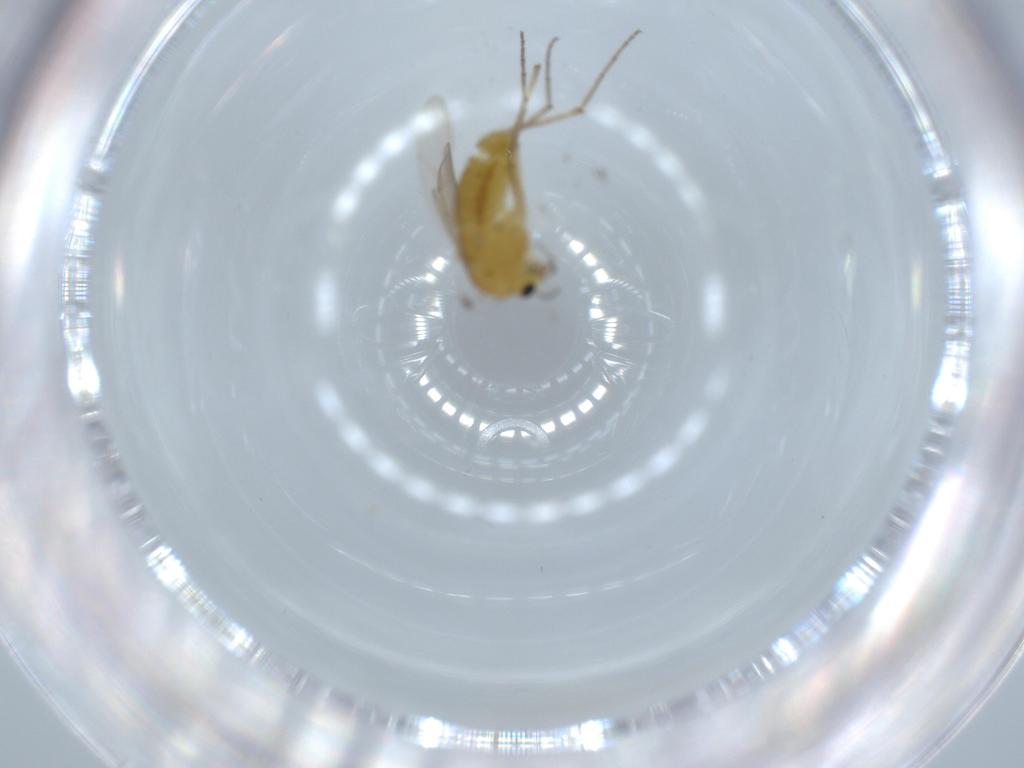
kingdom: Animalia
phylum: Arthropoda
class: Insecta
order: Diptera
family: Chironomidae
